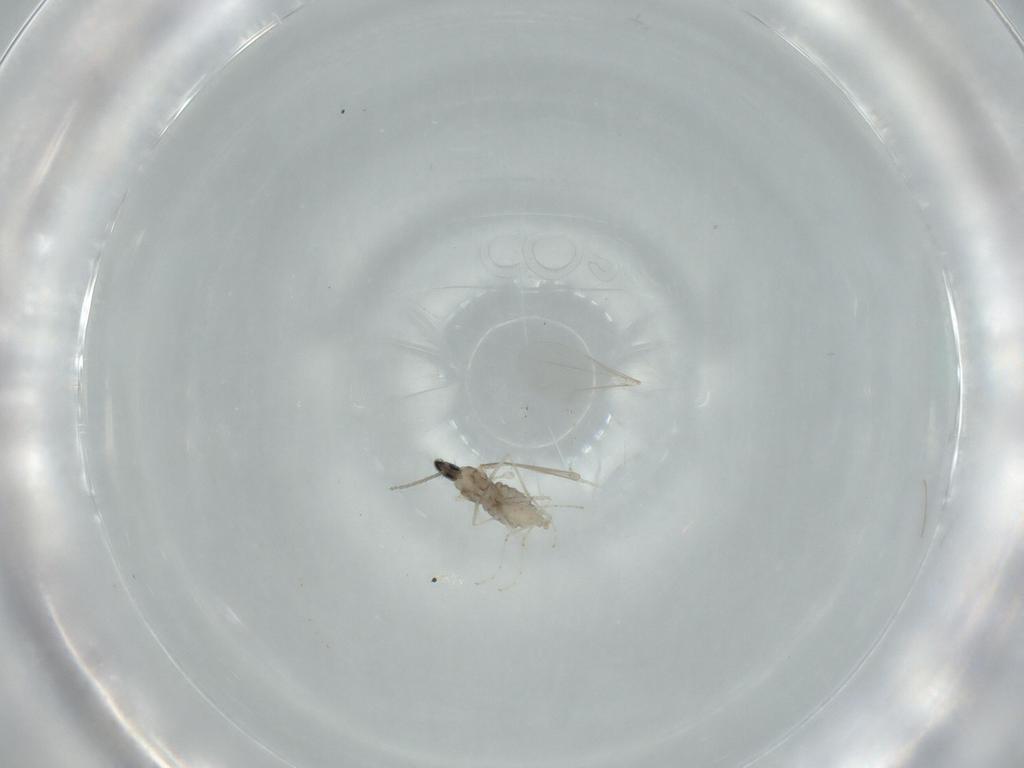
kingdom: Animalia
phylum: Arthropoda
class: Insecta
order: Diptera
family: Cecidomyiidae
